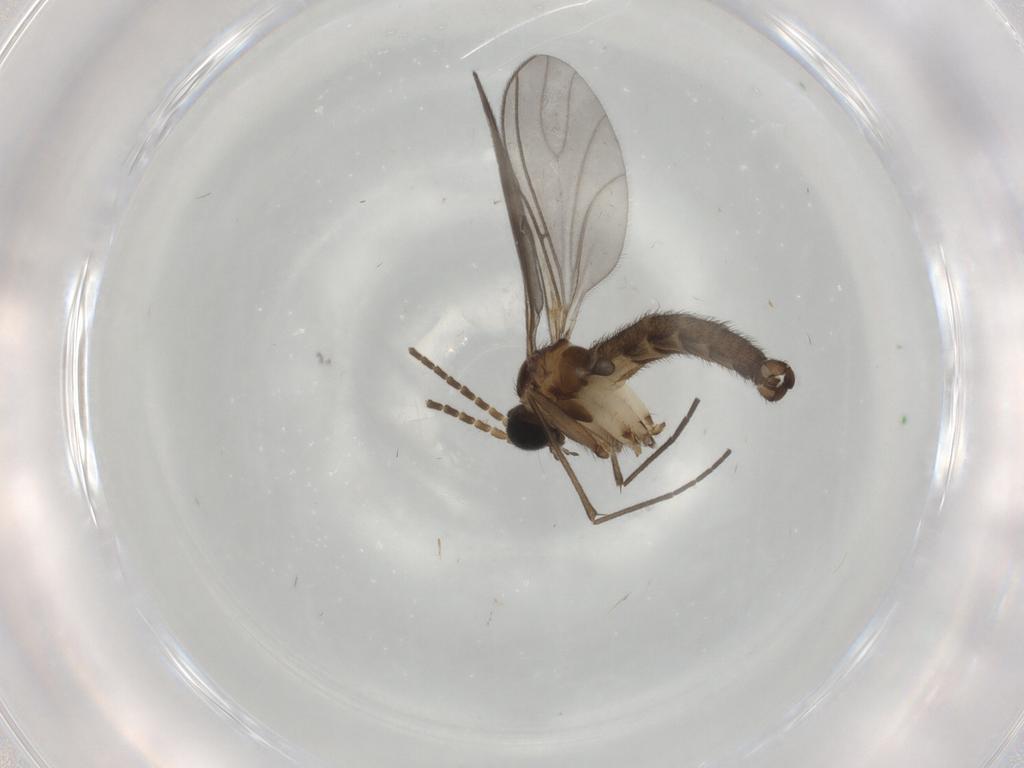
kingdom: Animalia
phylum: Arthropoda
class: Insecta
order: Diptera
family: Sciaridae
